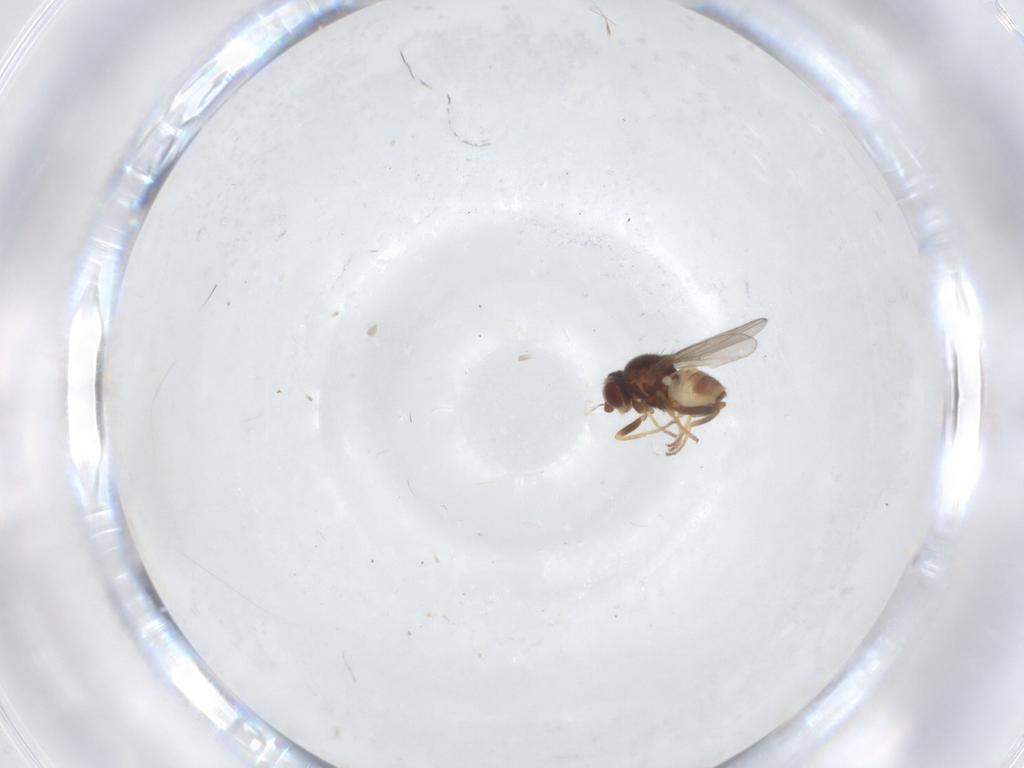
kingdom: Animalia
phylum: Arthropoda
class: Insecta
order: Diptera
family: Chloropidae
